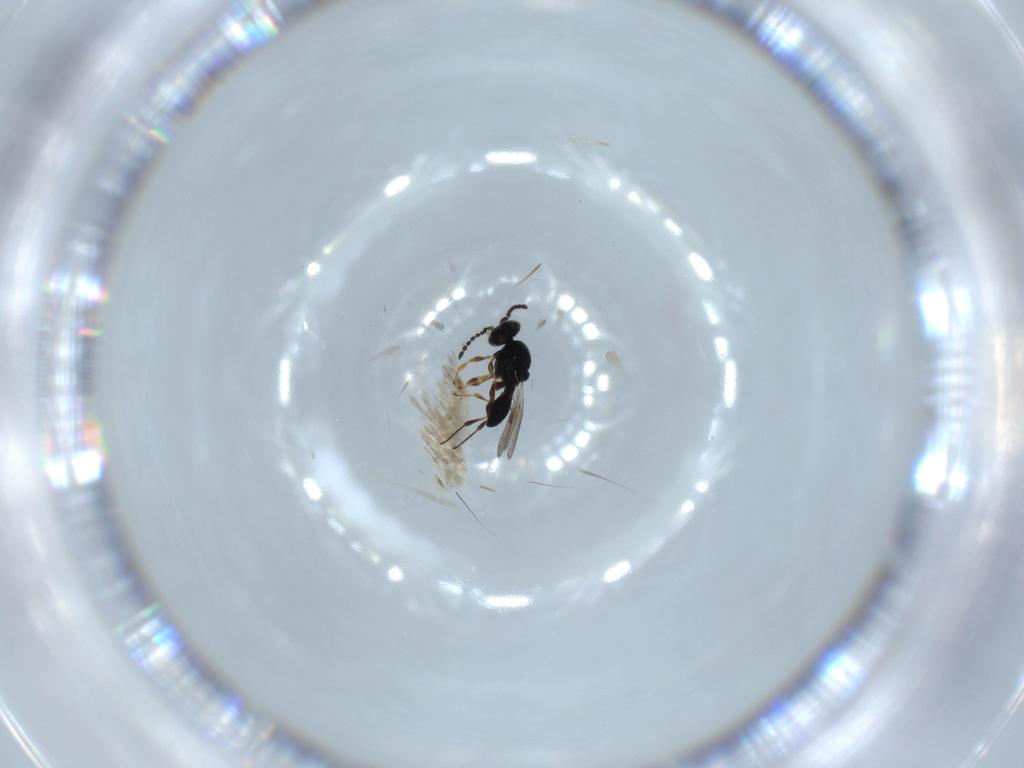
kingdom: Animalia
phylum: Arthropoda
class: Insecta
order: Hymenoptera
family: Platygastridae
